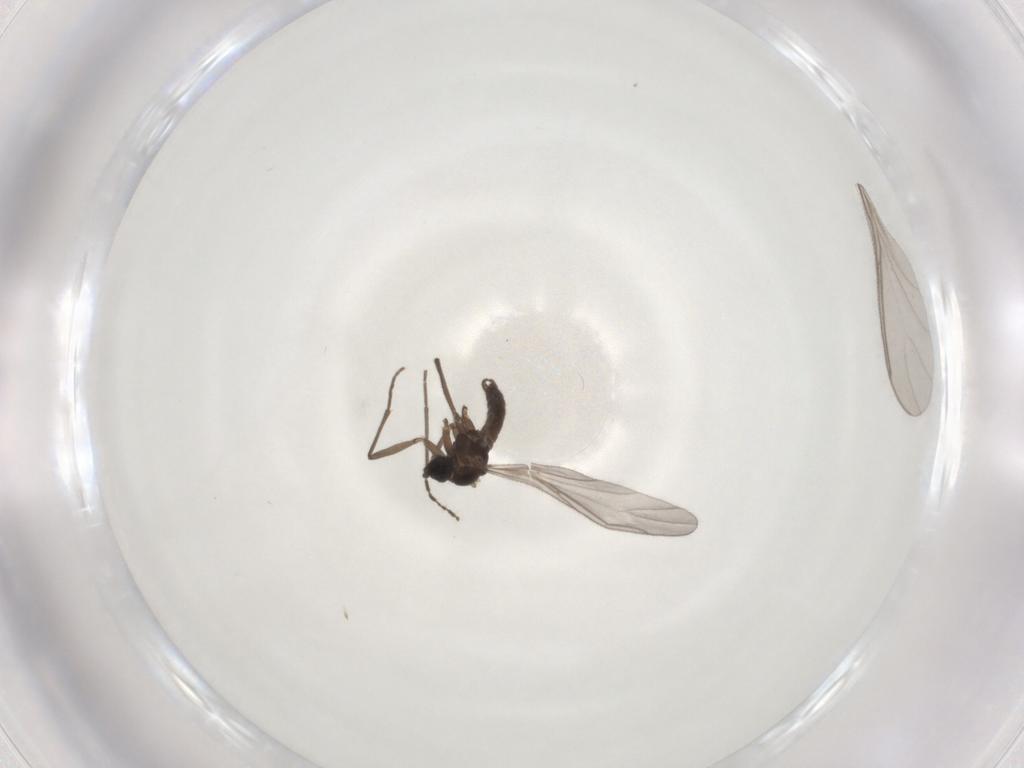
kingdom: Animalia
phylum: Arthropoda
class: Insecta
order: Diptera
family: Sciaridae
